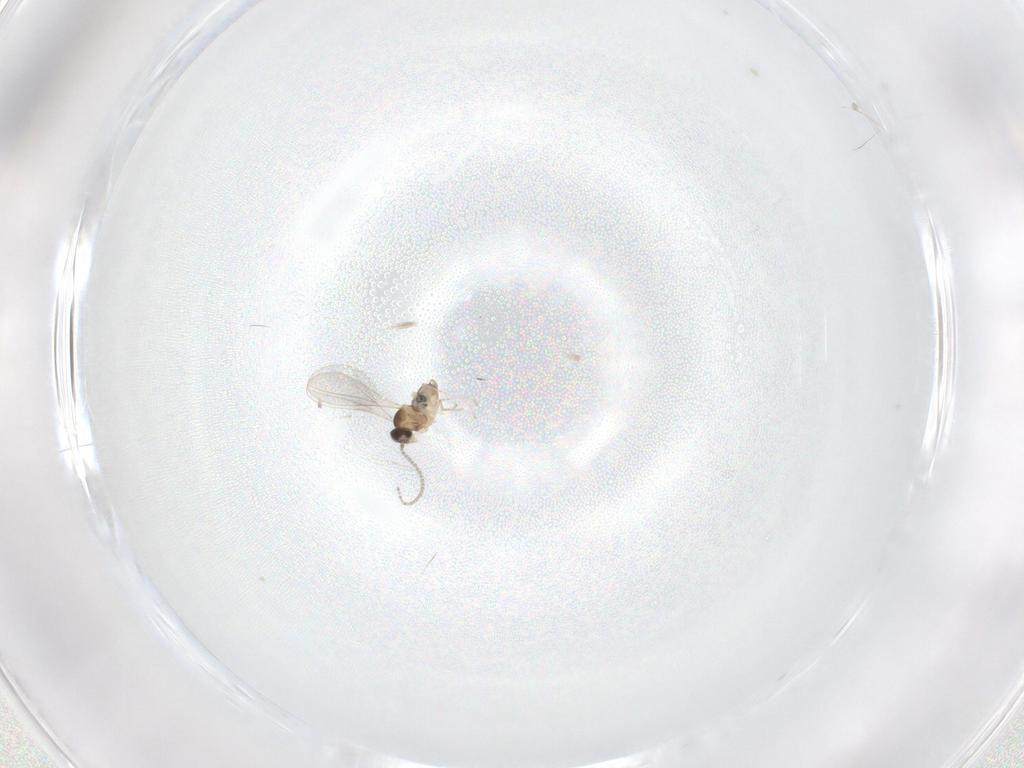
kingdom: Animalia
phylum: Arthropoda
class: Insecta
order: Diptera
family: Cecidomyiidae
